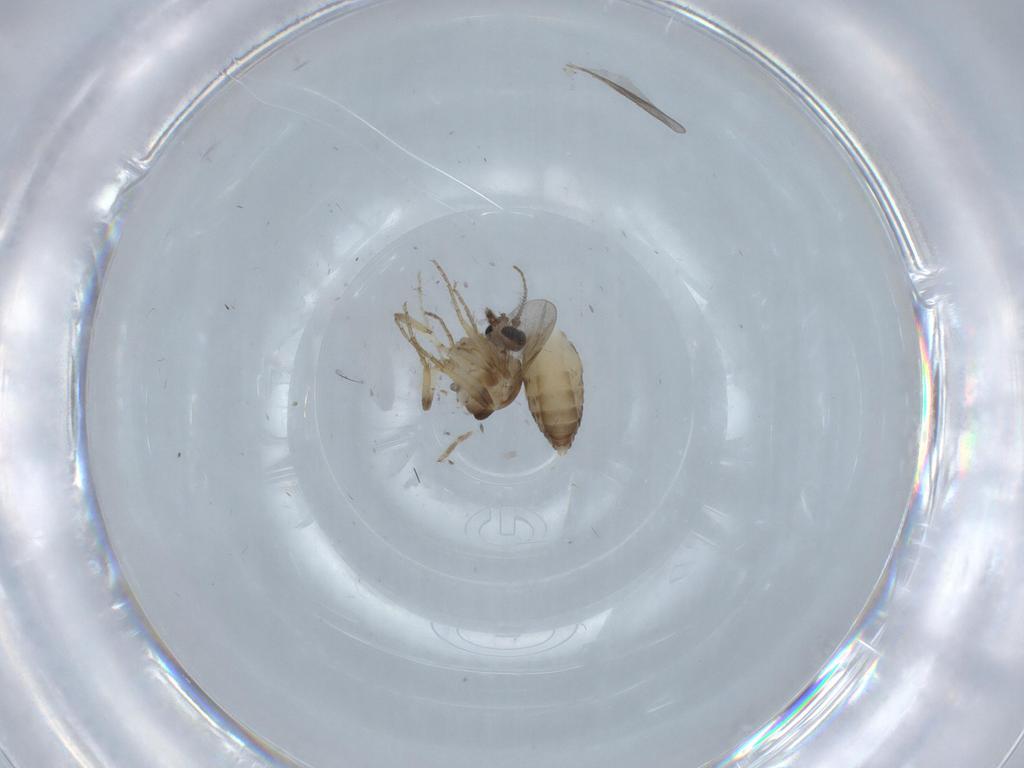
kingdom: Animalia
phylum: Arthropoda
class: Insecta
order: Diptera
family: Ceratopogonidae
